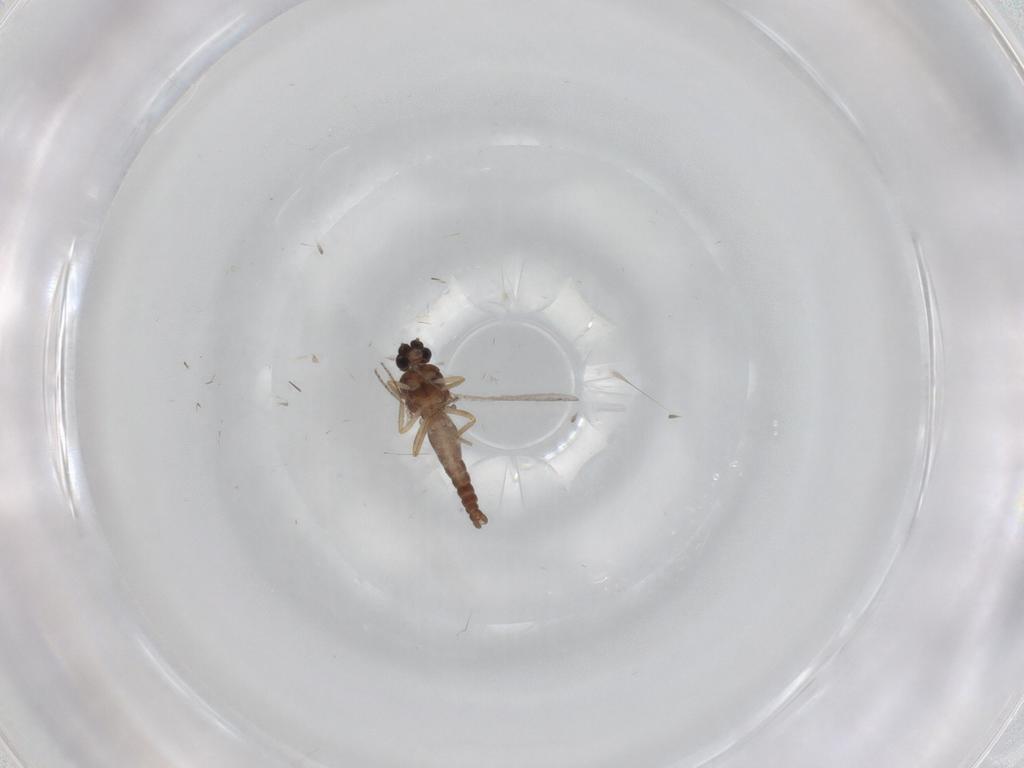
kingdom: Animalia
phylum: Arthropoda
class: Insecta
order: Diptera
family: Ceratopogonidae
